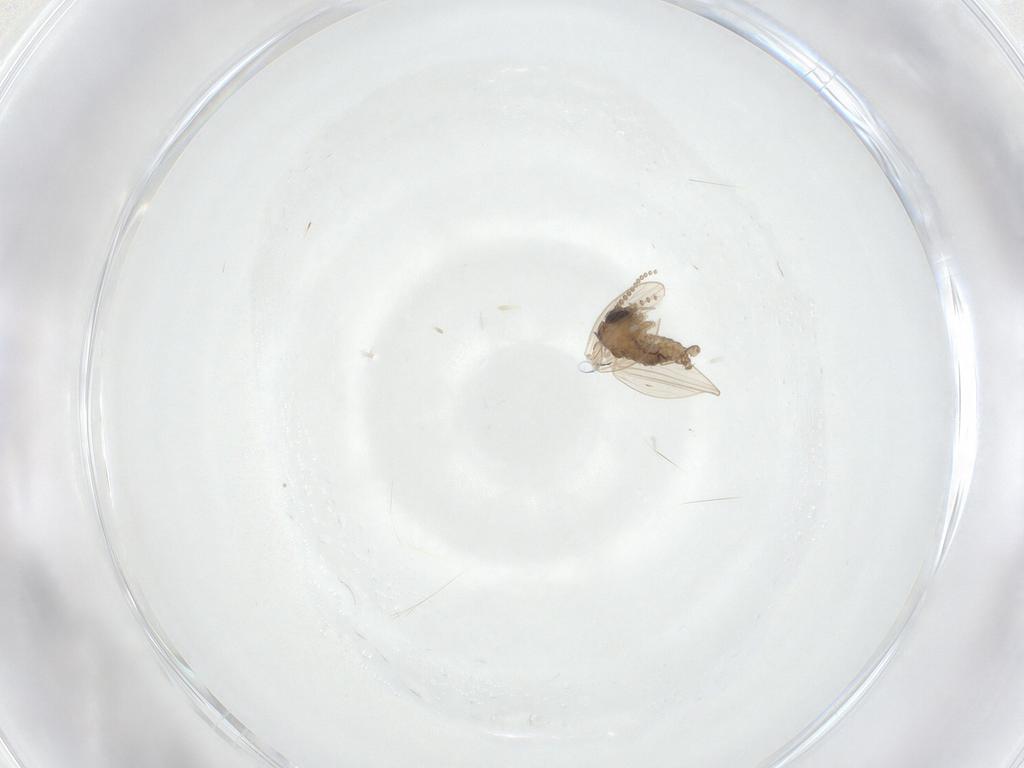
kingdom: Animalia
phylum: Arthropoda
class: Insecta
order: Diptera
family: Psychodidae
